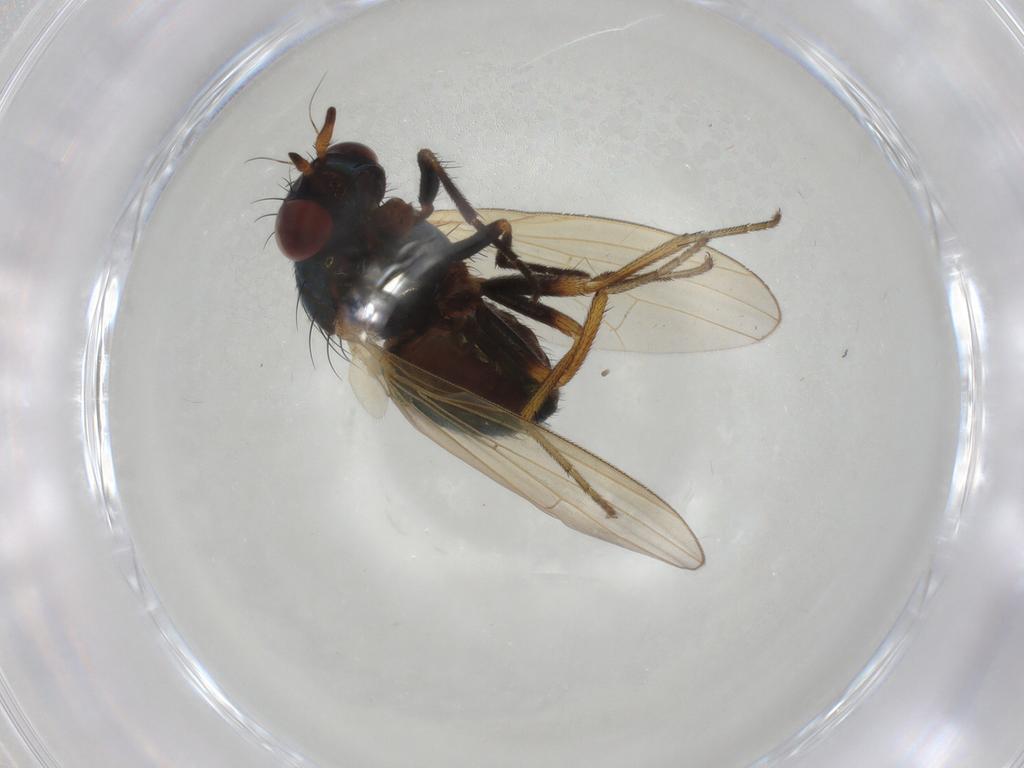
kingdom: Animalia
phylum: Arthropoda
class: Insecta
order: Diptera
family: Lauxaniidae
